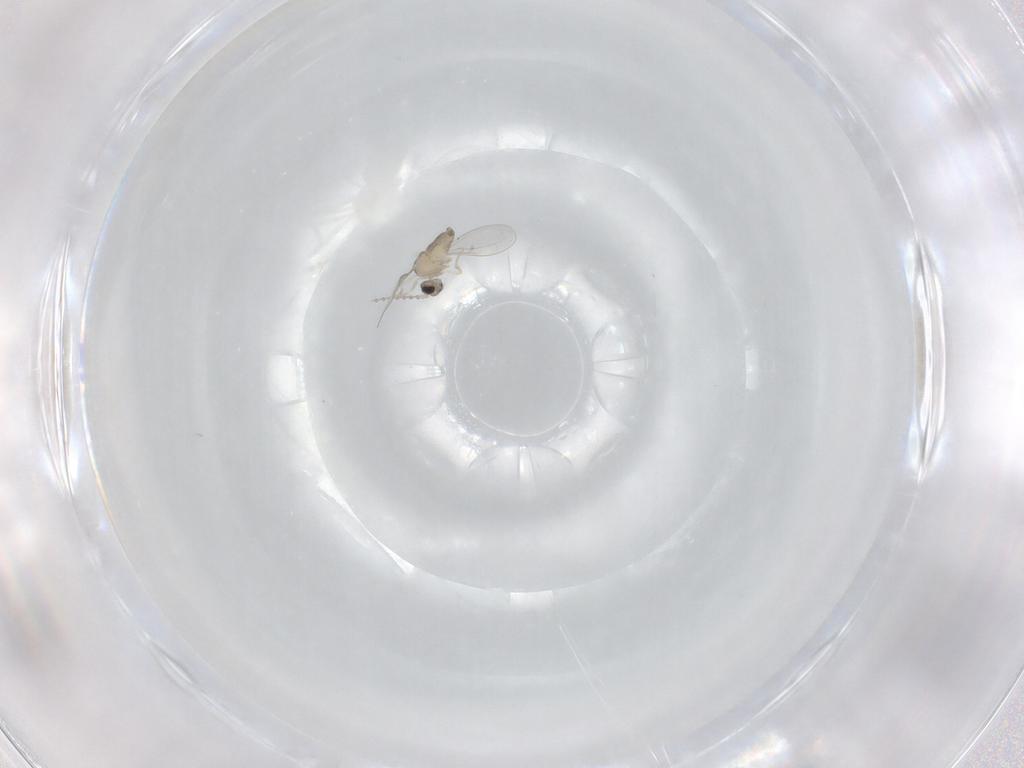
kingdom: Animalia
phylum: Arthropoda
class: Insecta
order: Diptera
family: Cecidomyiidae
